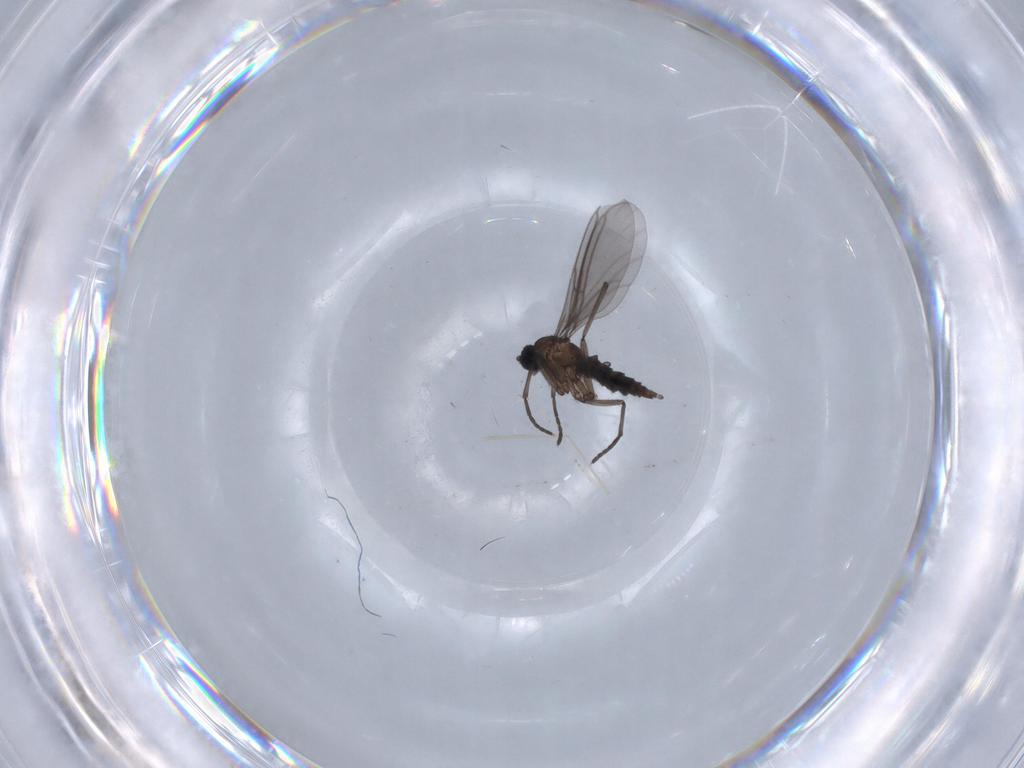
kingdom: Animalia
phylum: Arthropoda
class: Insecta
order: Diptera
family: Cecidomyiidae
